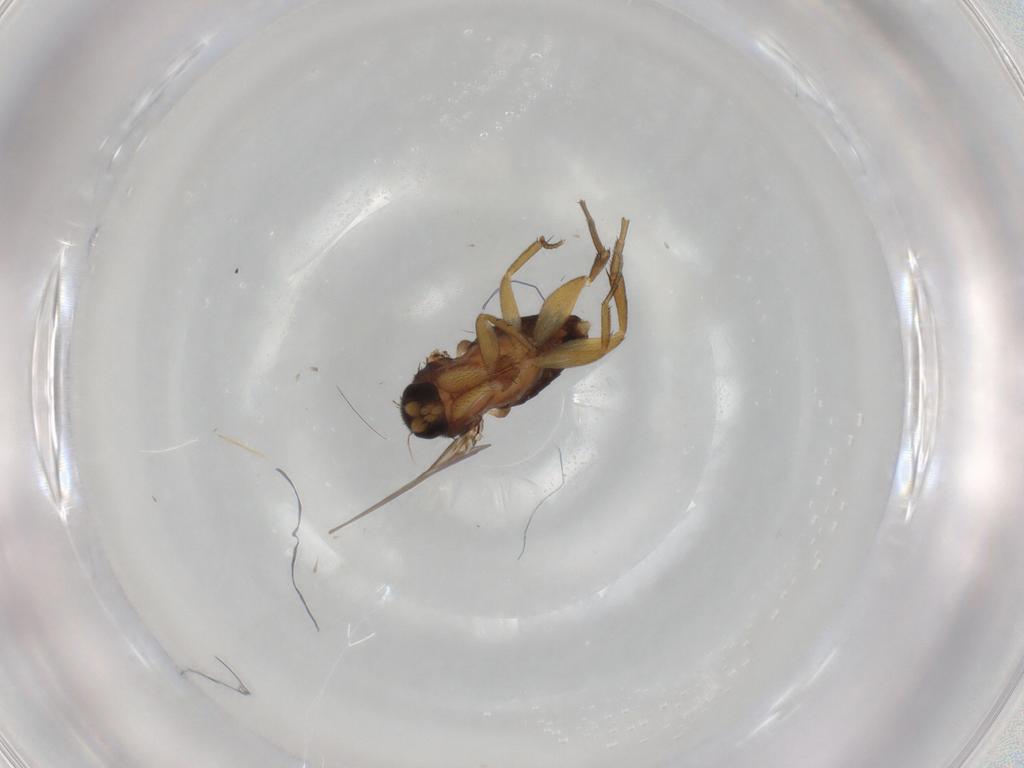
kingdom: Animalia
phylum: Arthropoda
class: Insecta
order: Diptera
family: Phoridae
